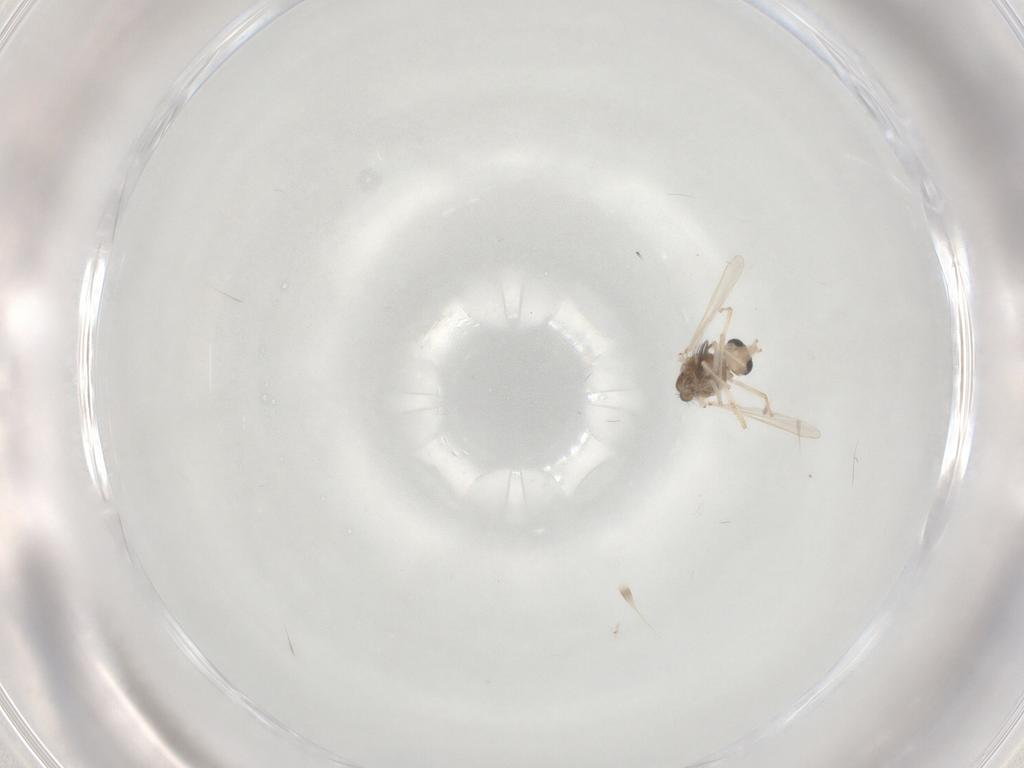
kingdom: Animalia
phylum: Arthropoda
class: Insecta
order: Diptera
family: Chironomidae
